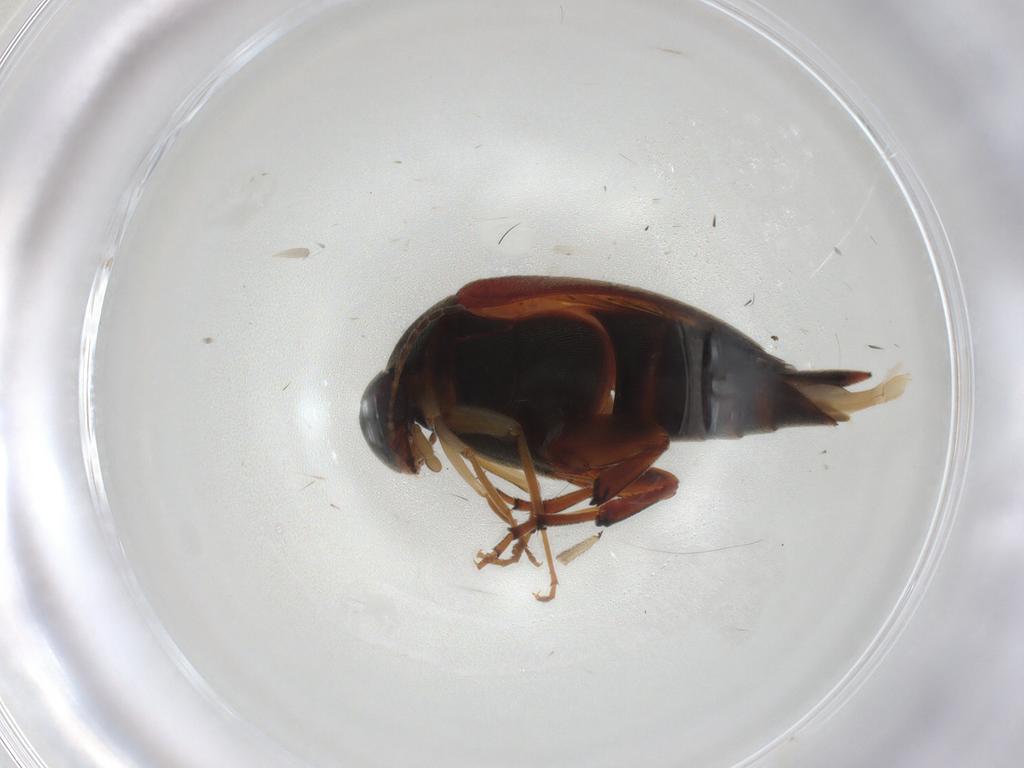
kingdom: Animalia
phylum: Arthropoda
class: Insecta
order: Coleoptera
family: Mordellidae
